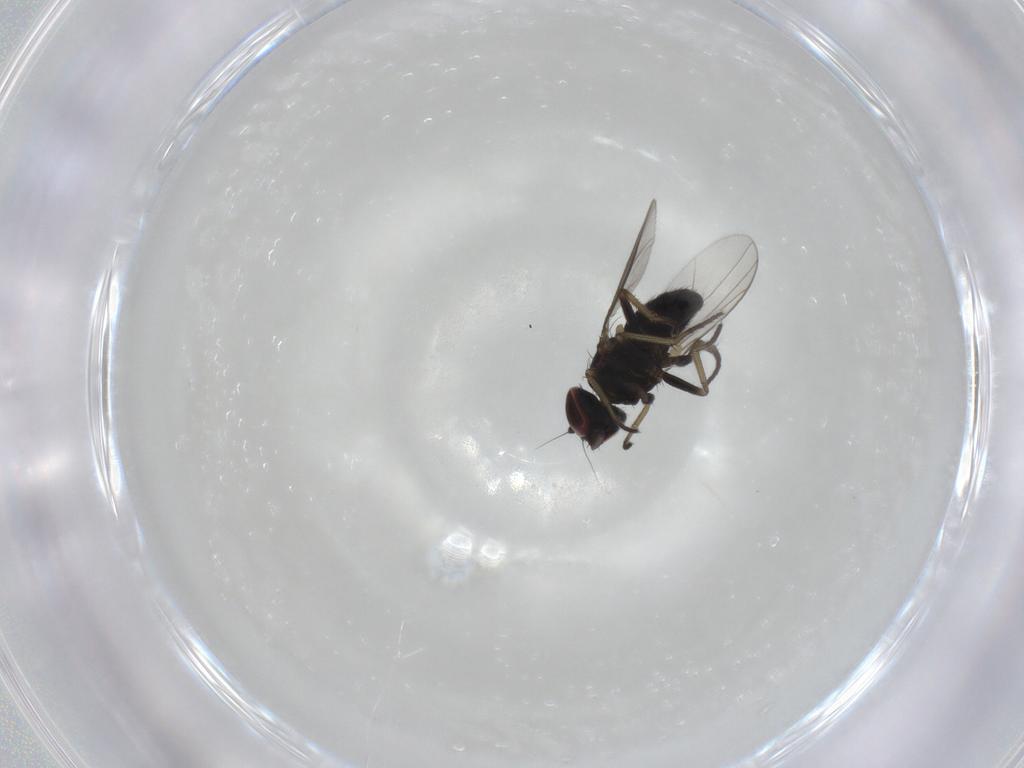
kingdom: Animalia
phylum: Arthropoda
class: Insecta
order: Diptera
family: Dolichopodidae
